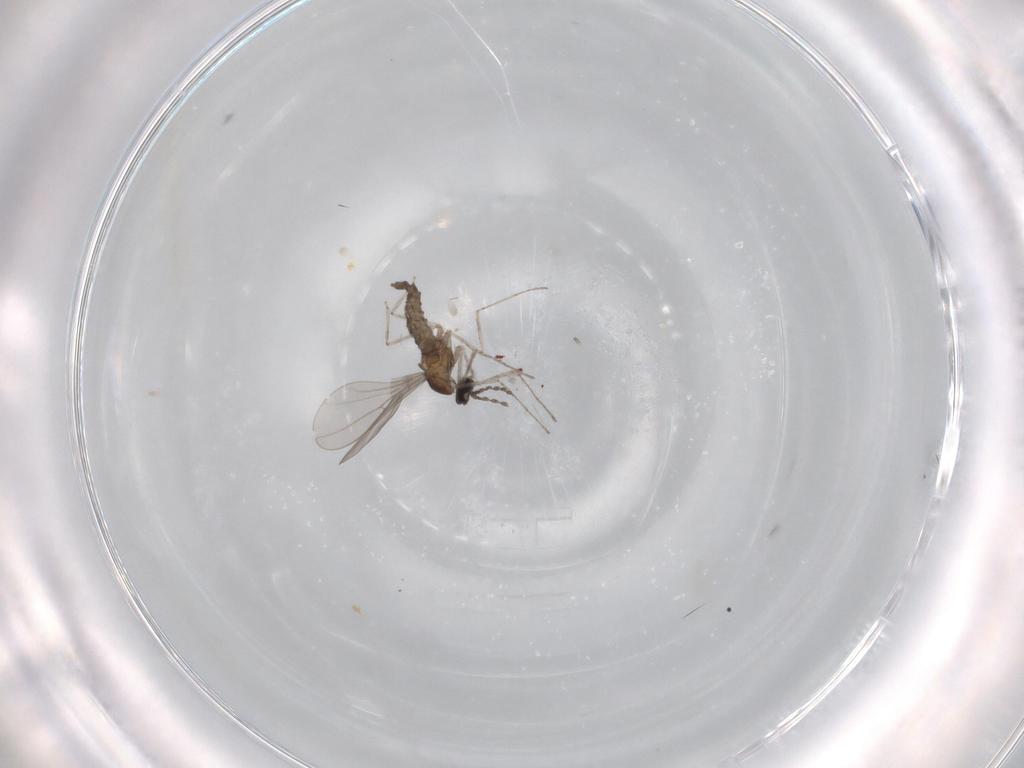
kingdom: Animalia
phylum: Arthropoda
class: Insecta
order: Diptera
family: Cecidomyiidae
